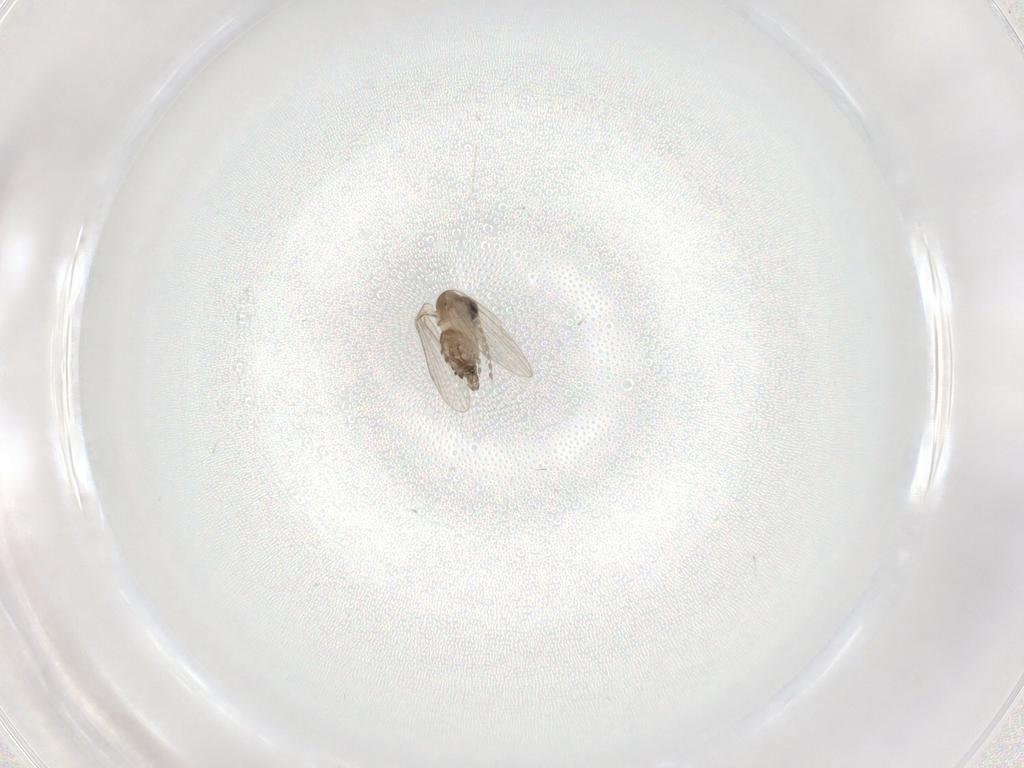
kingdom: Animalia
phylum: Arthropoda
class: Insecta
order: Diptera
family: Psychodidae
